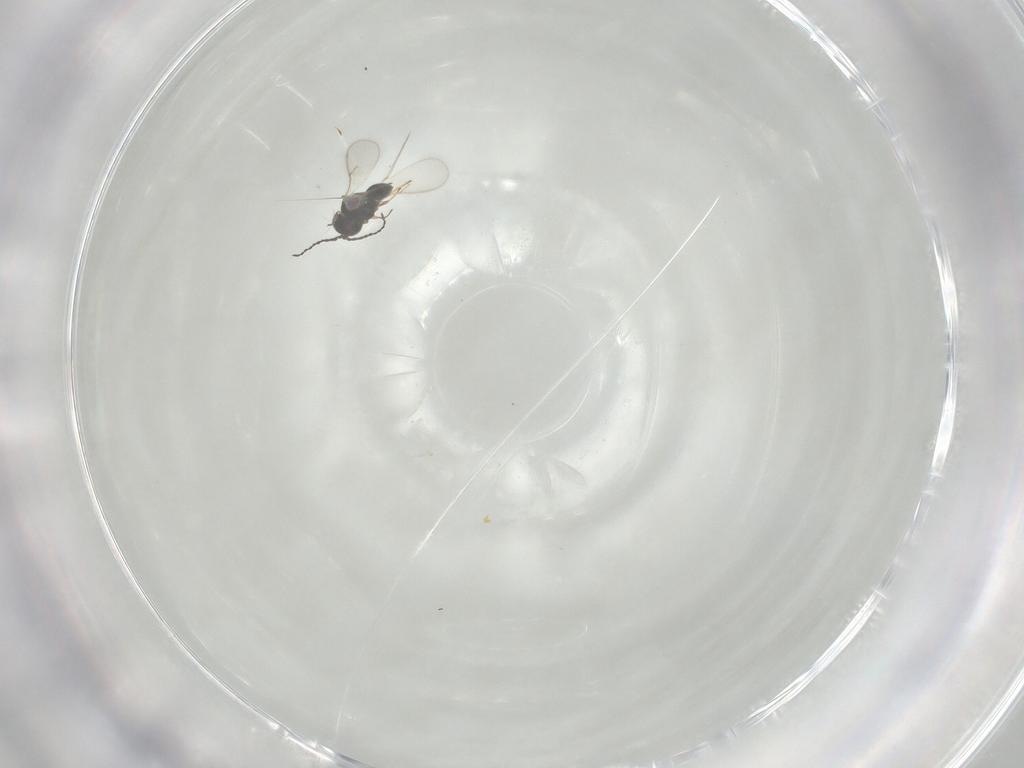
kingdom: Animalia
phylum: Arthropoda
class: Insecta
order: Hymenoptera
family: Scelionidae
